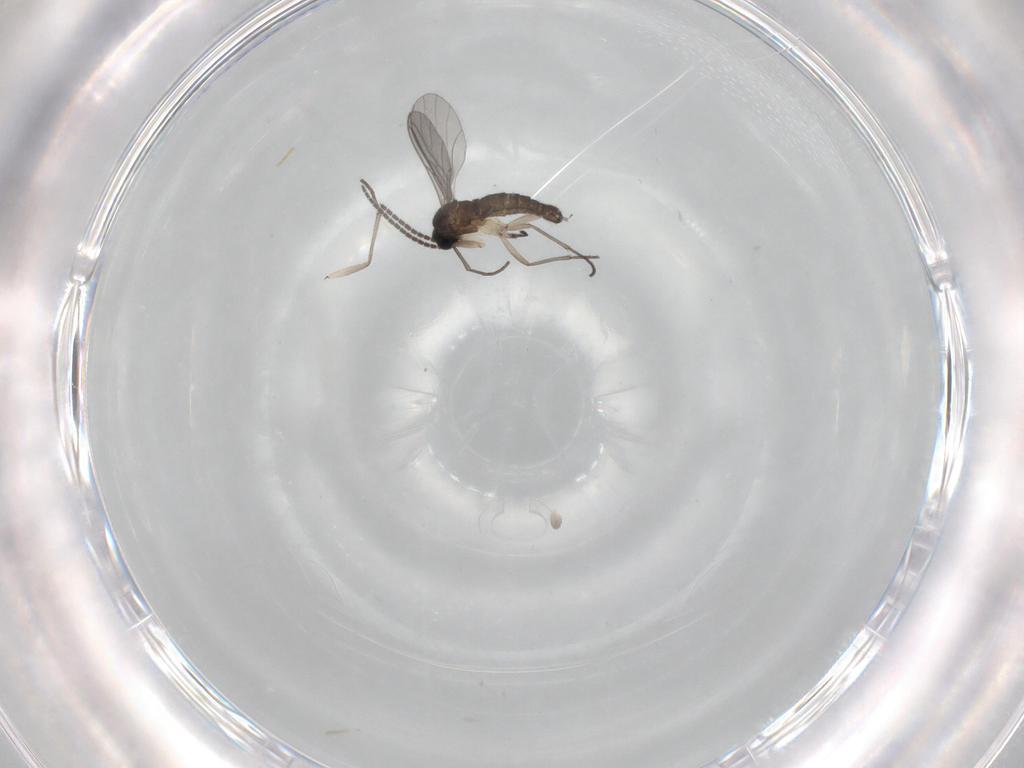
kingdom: Animalia
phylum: Arthropoda
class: Insecta
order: Diptera
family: Sciaridae
